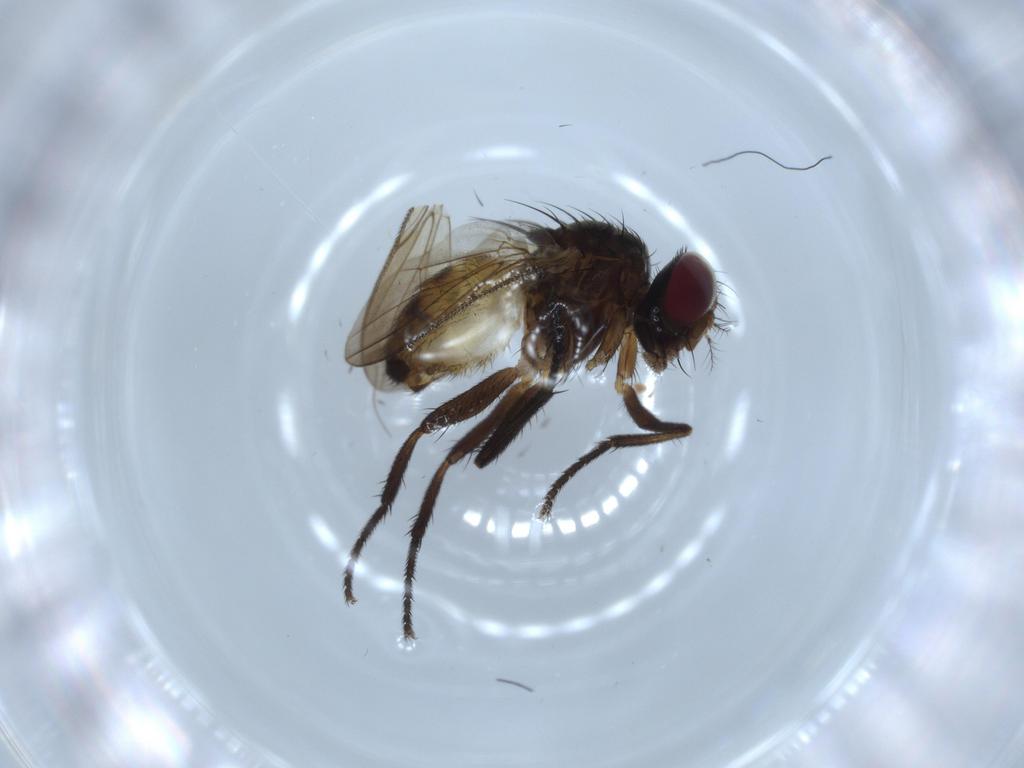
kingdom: Animalia
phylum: Arthropoda
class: Insecta
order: Diptera
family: Anthomyiidae
